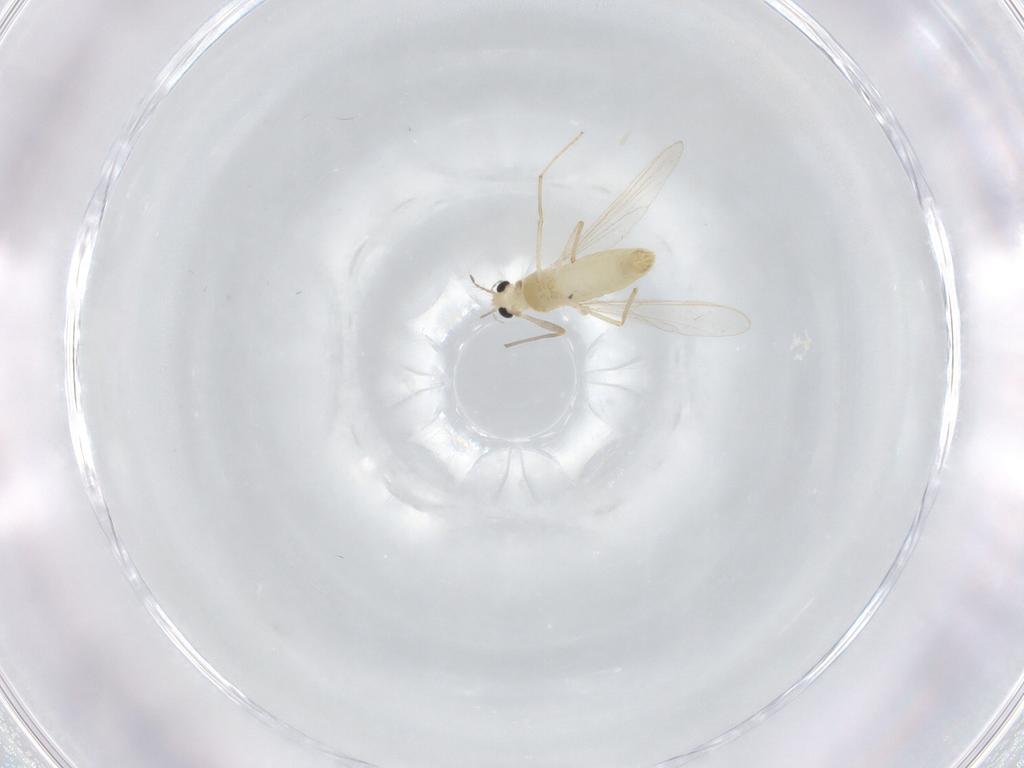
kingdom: Animalia
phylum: Arthropoda
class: Insecta
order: Diptera
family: Chironomidae
